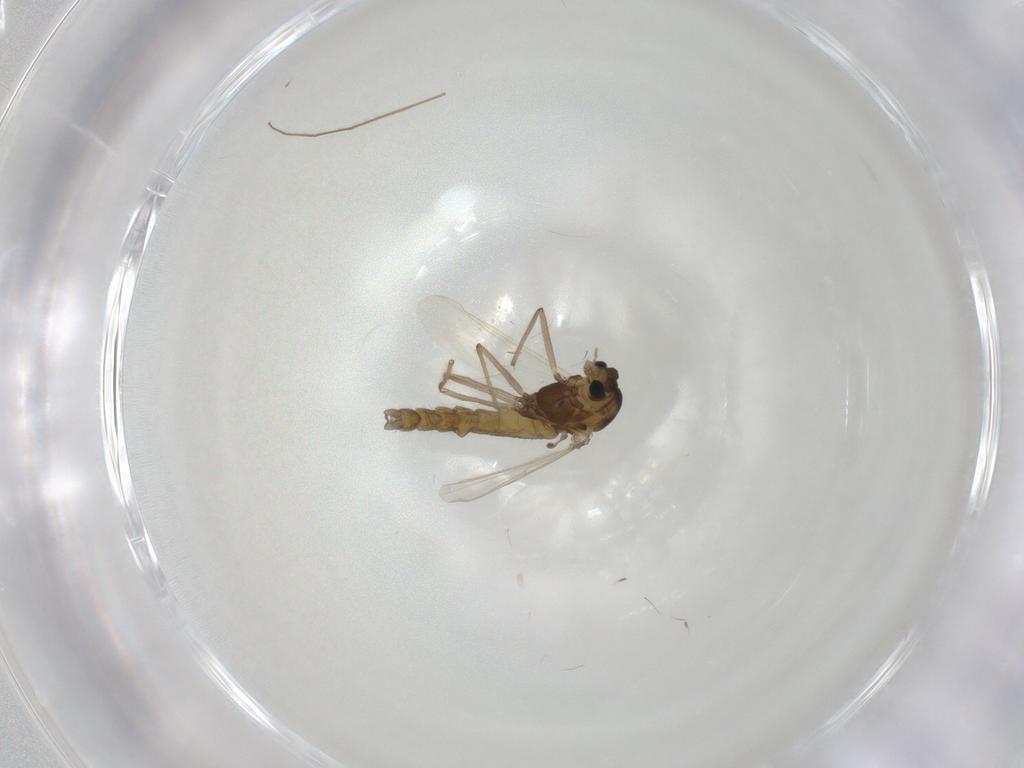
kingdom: Animalia
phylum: Arthropoda
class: Insecta
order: Diptera
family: Chironomidae
